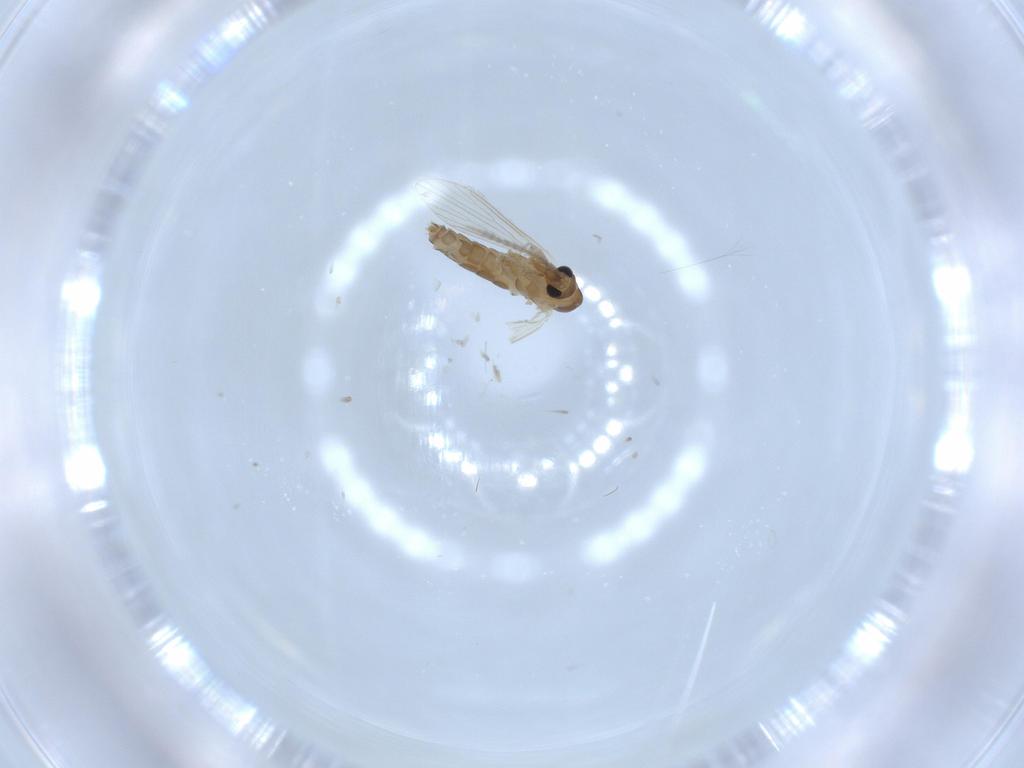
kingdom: Animalia
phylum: Arthropoda
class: Insecta
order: Diptera
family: Psychodidae
